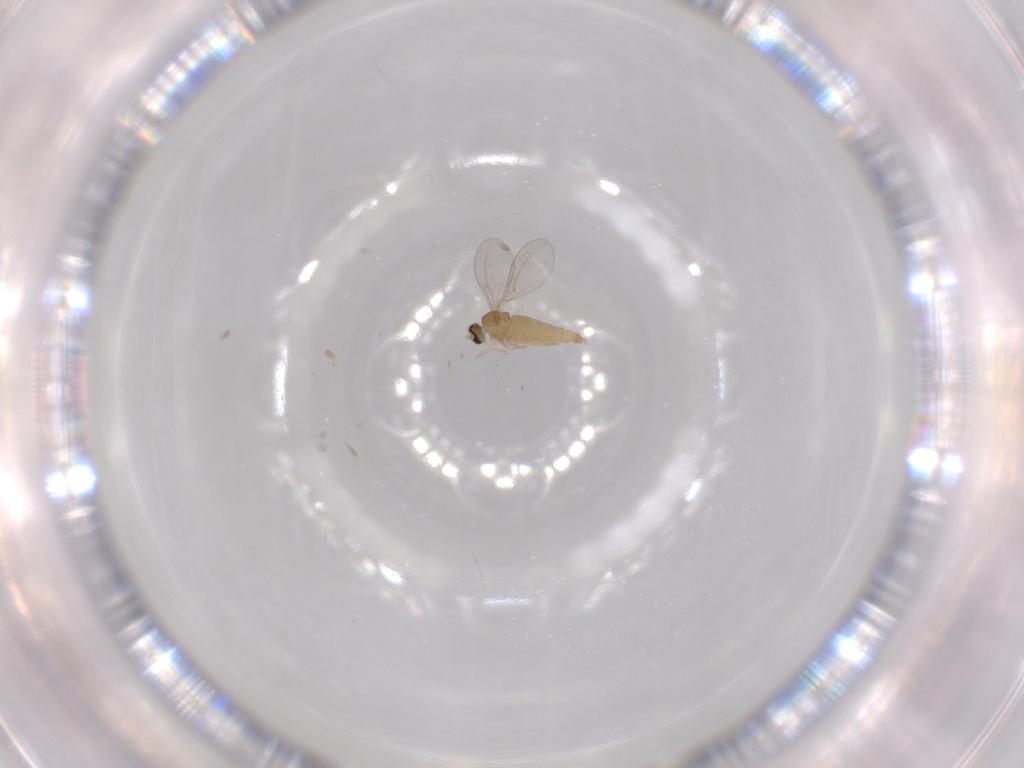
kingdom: Animalia
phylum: Arthropoda
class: Insecta
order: Diptera
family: Cecidomyiidae
